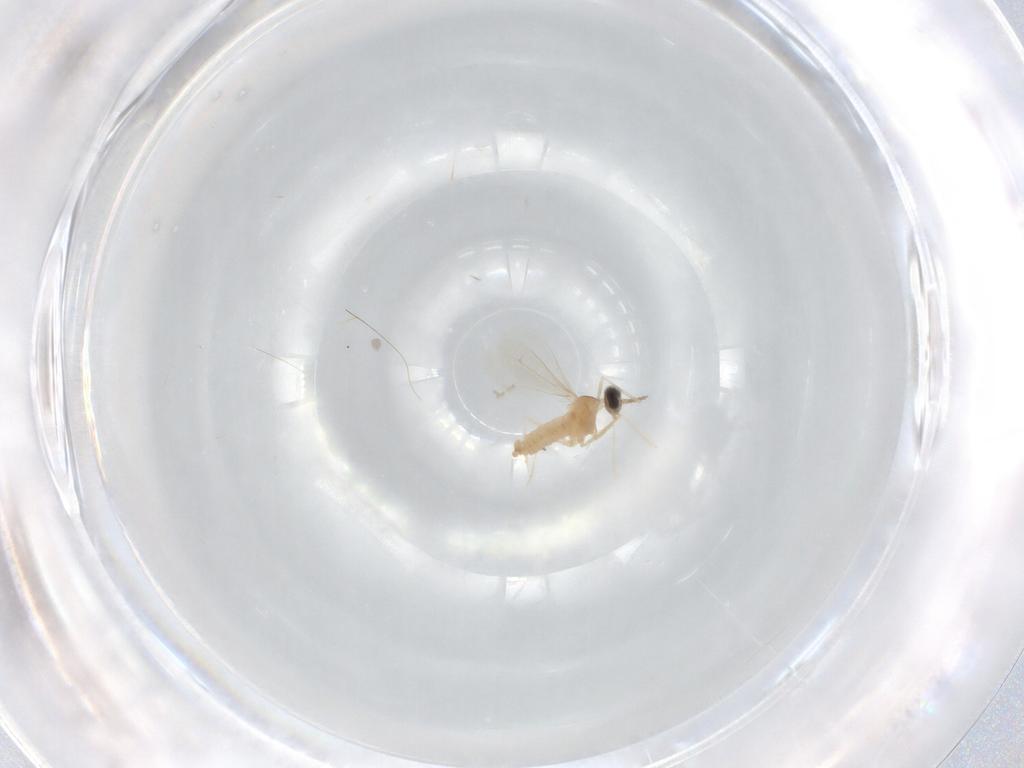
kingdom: Animalia
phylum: Arthropoda
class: Insecta
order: Diptera
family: Cecidomyiidae
